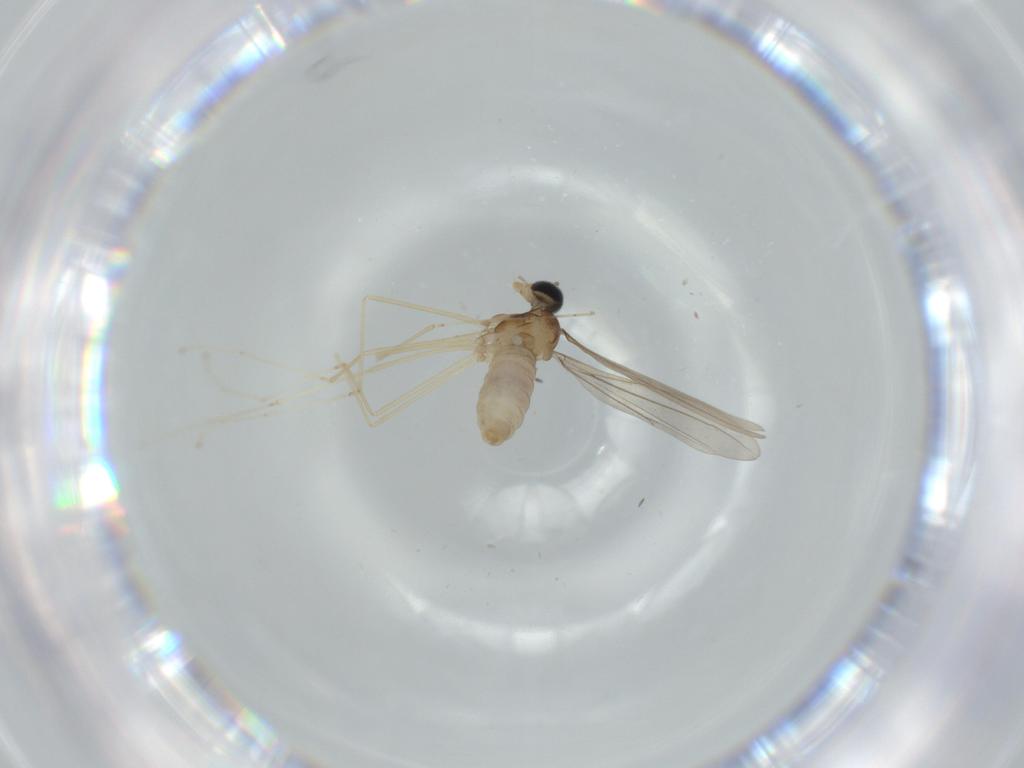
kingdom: Animalia
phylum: Arthropoda
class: Insecta
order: Diptera
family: Cecidomyiidae
